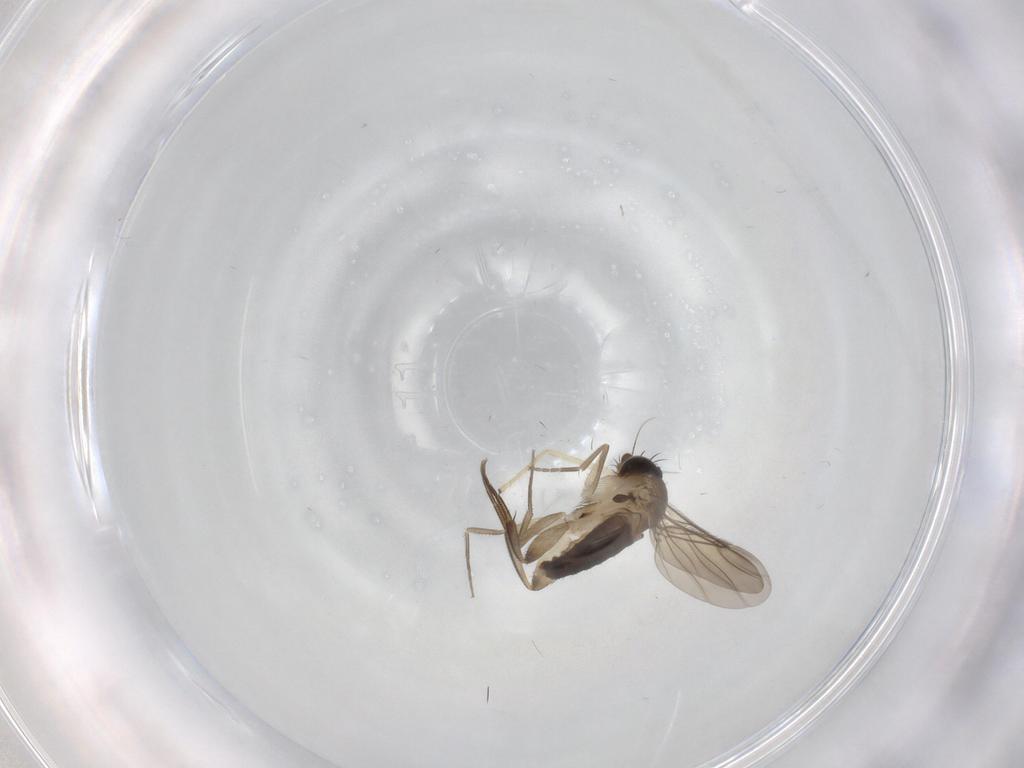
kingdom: Animalia
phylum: Arthropoda
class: Insecta
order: Diptera
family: Phoridae
